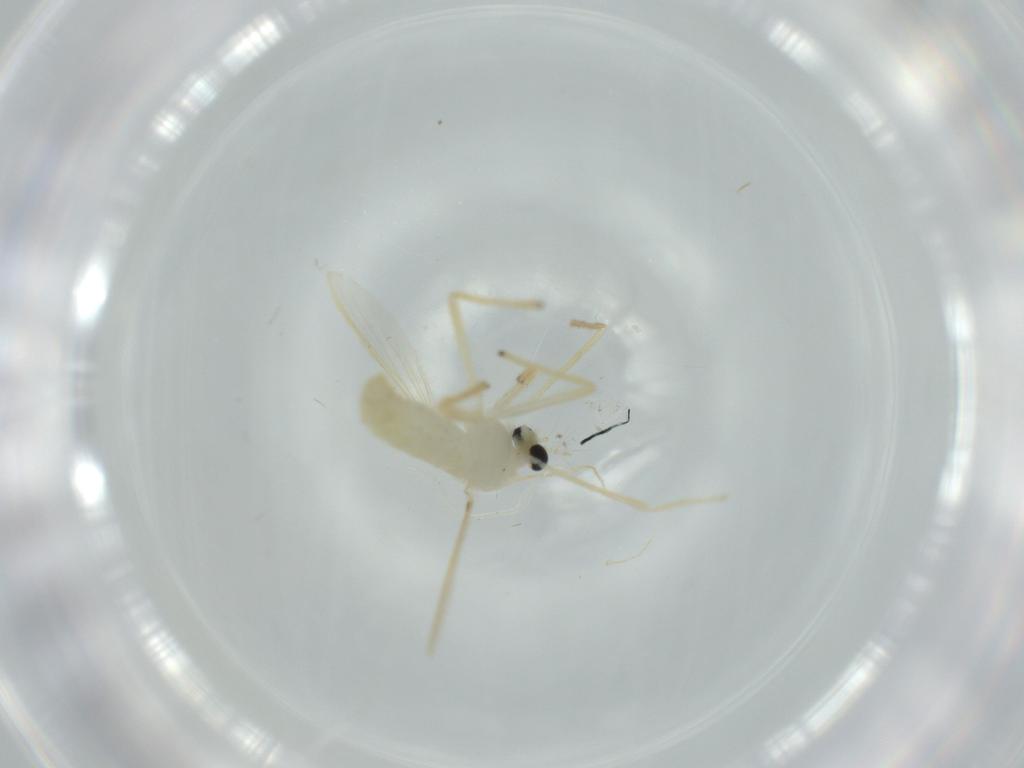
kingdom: Animalia
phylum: Arthropoda
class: Insecta
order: Diptera
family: Chironomidae
